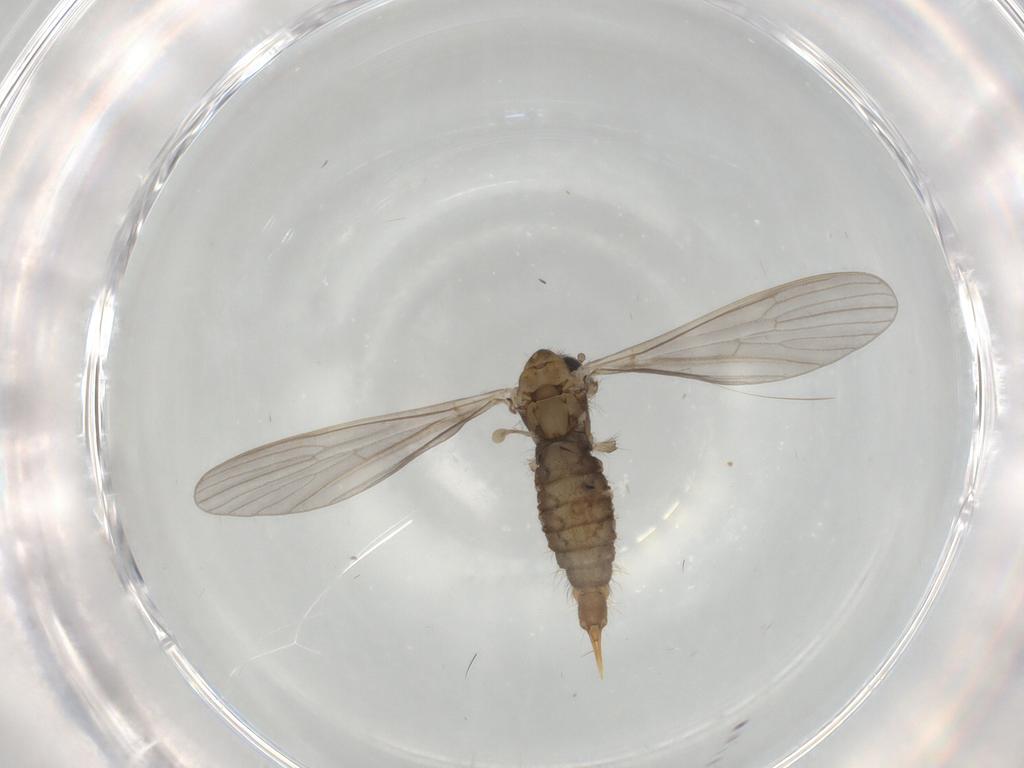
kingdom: Animalia
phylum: Arthropoda
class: Insecta
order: Diptera
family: Limoniidae
